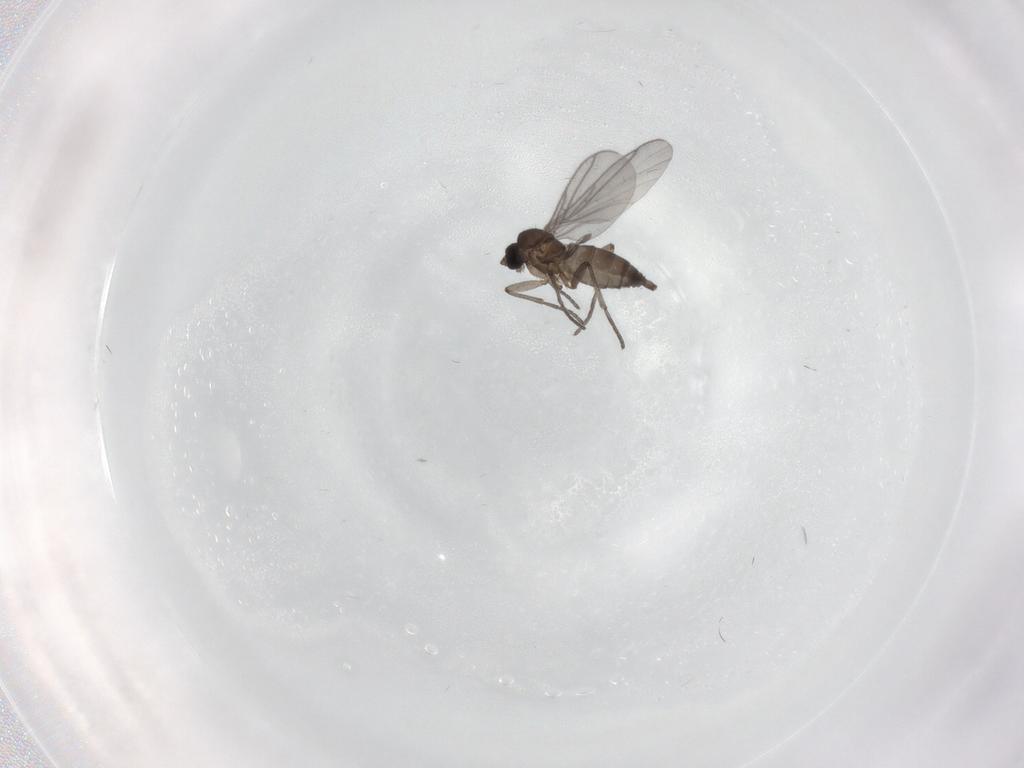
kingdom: Animalia
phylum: Arthropoda
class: Insecta
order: Diptera
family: Sciaridae
